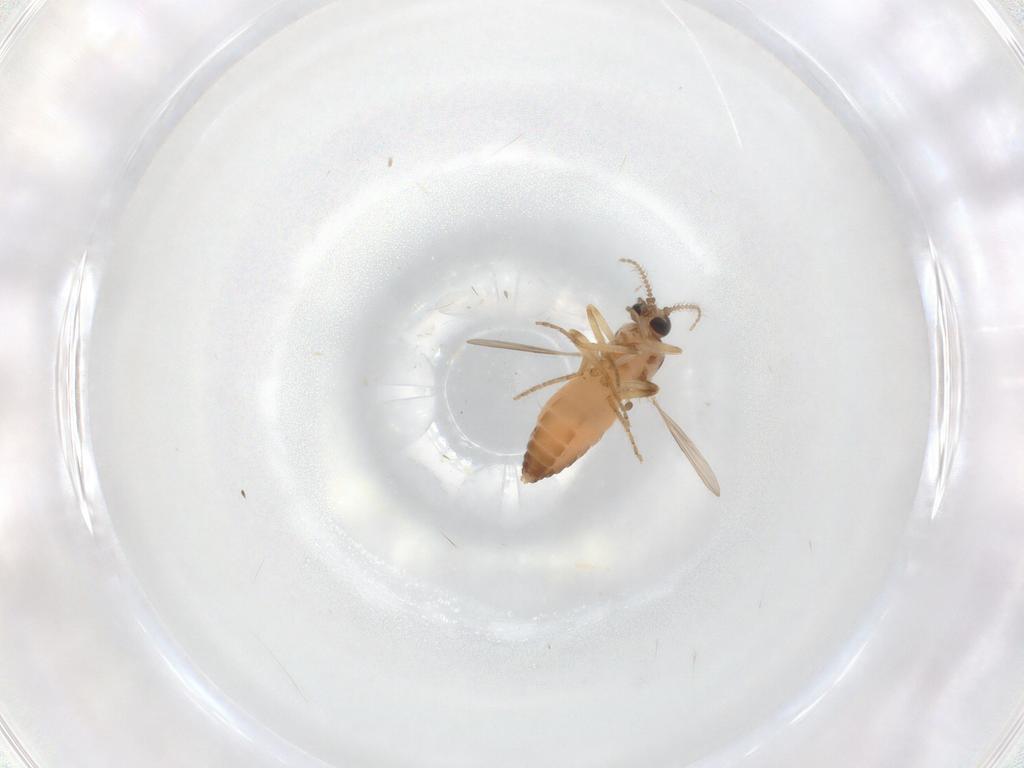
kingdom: Animalia
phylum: Arthropoda
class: Insecta
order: Diptera
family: Ceratopogonidae
